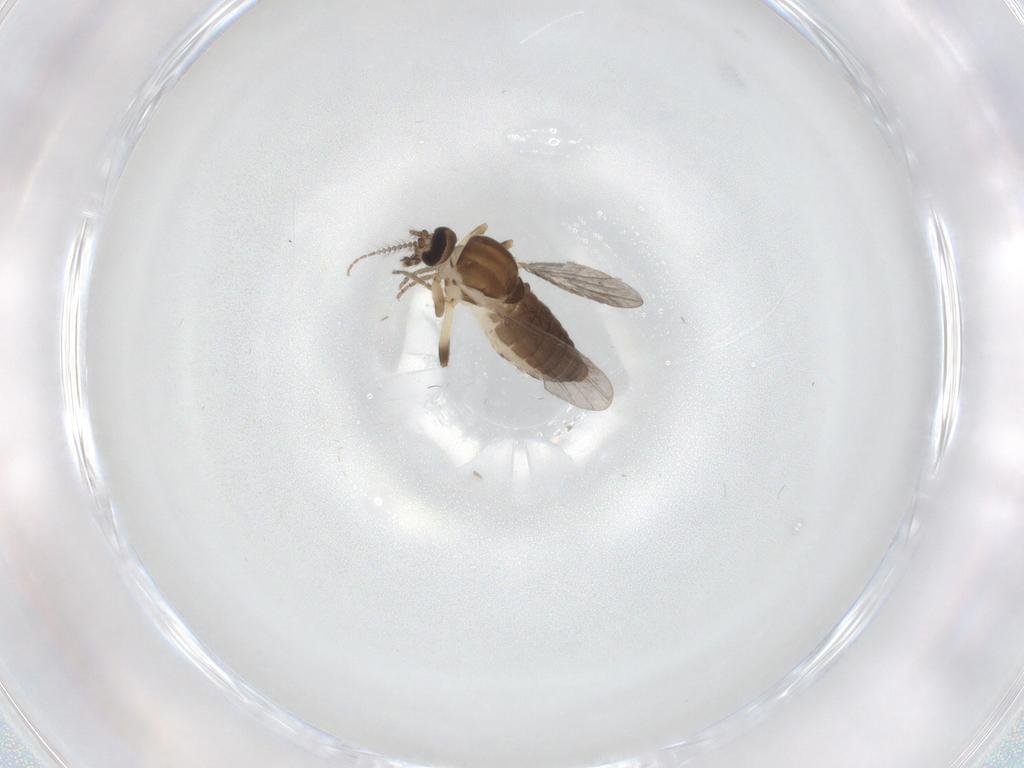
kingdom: Animalia
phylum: Arthropoda
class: Insecta
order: Diptera
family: Ceratopogonidae
